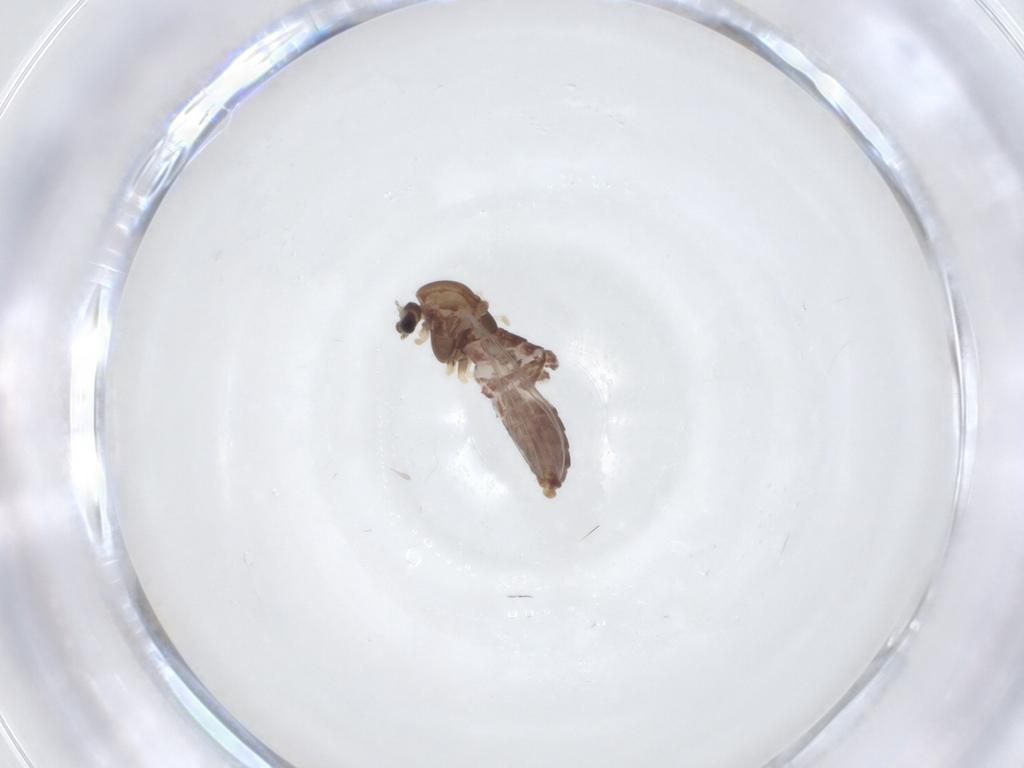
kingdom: Animalia
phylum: Arthropoda
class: Insecta
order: Diptera
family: Chironomidae
